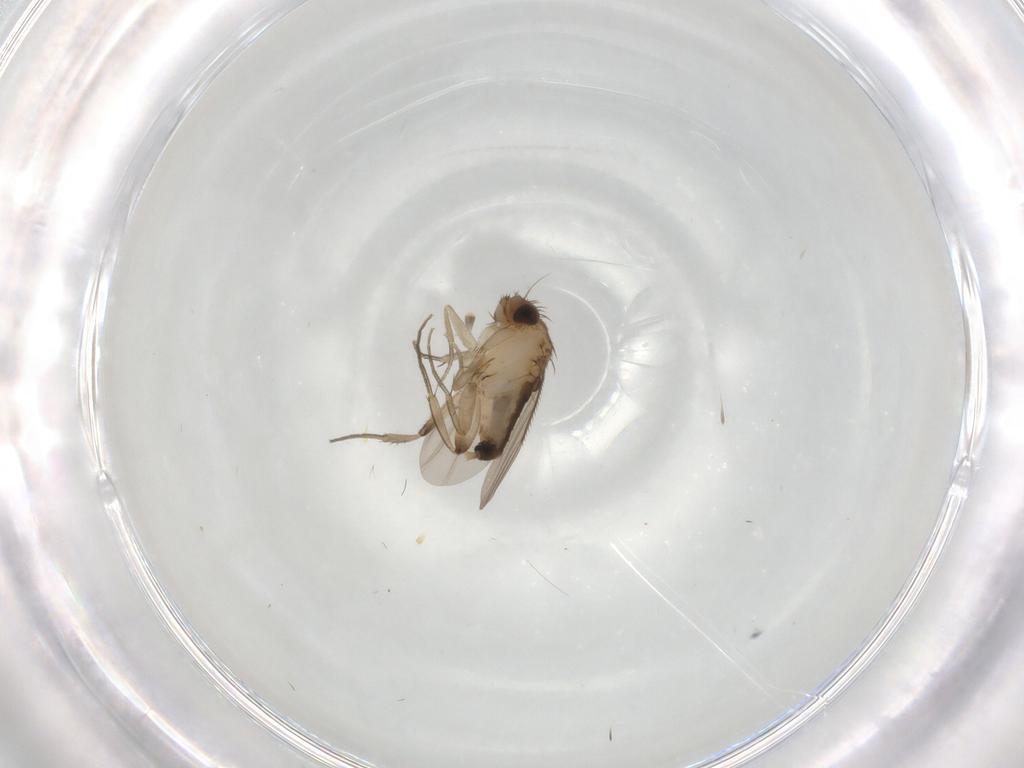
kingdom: Animalia
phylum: Arthropoda
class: Insecta
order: Diptera
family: Phoridae
